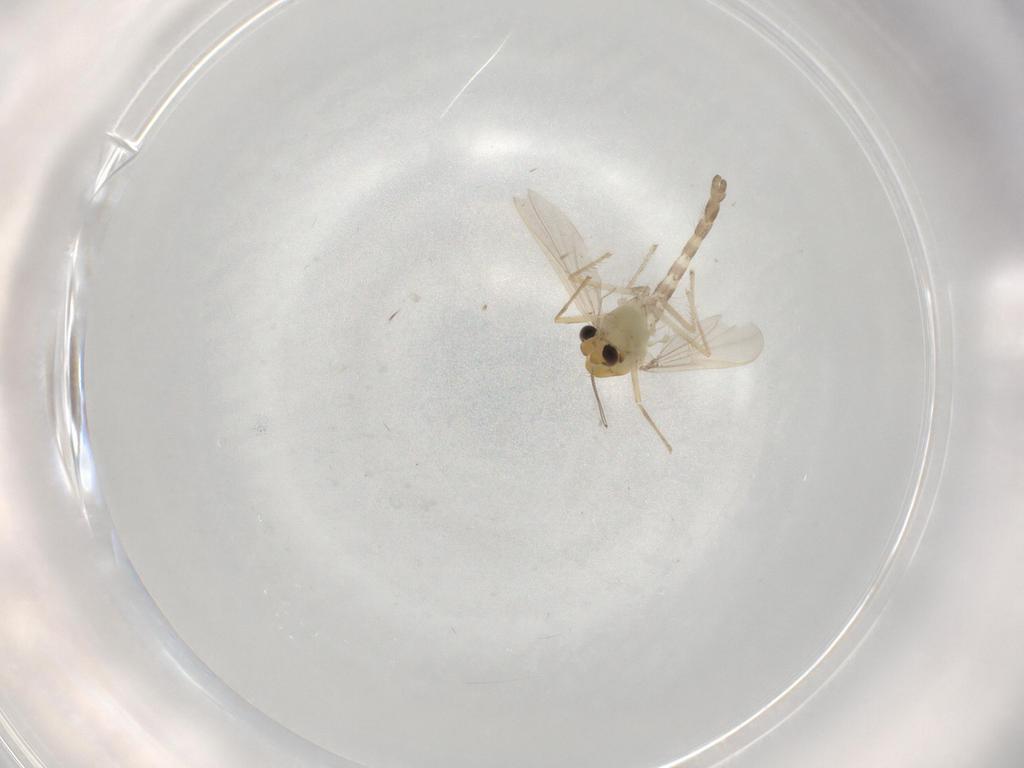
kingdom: Animalia
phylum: Arthropoda
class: Insecta
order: Diptera
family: Chironomidae
